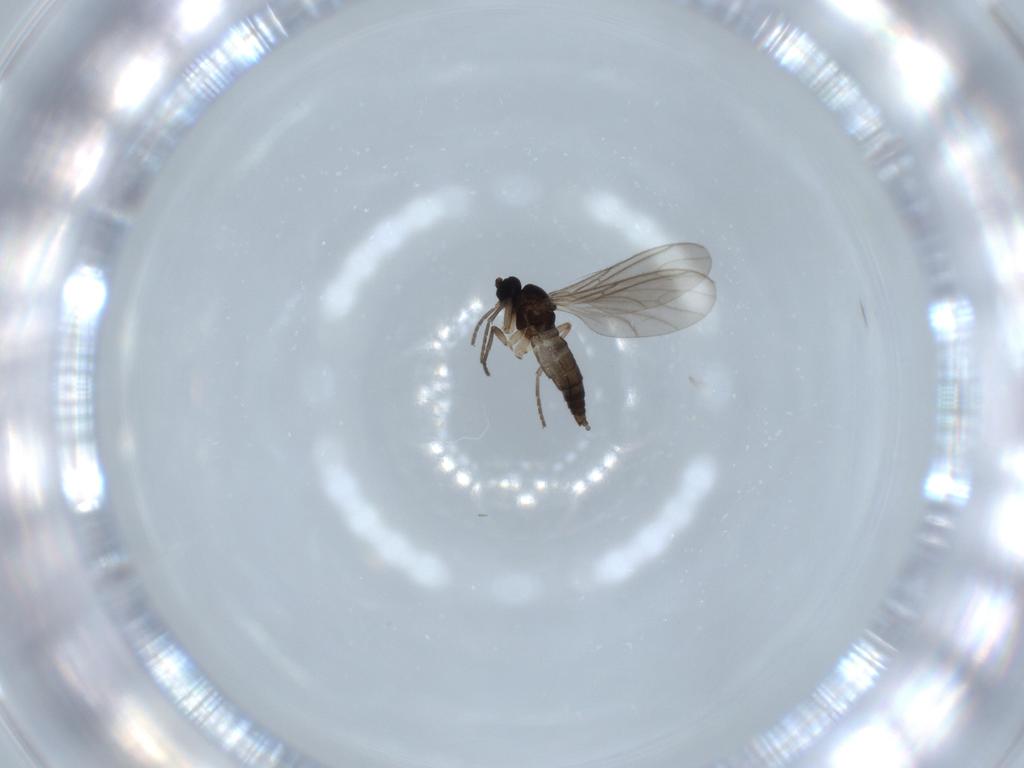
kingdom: Animalia
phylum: Arthropoda
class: Insecta
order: Diptera
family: Sciaridae
